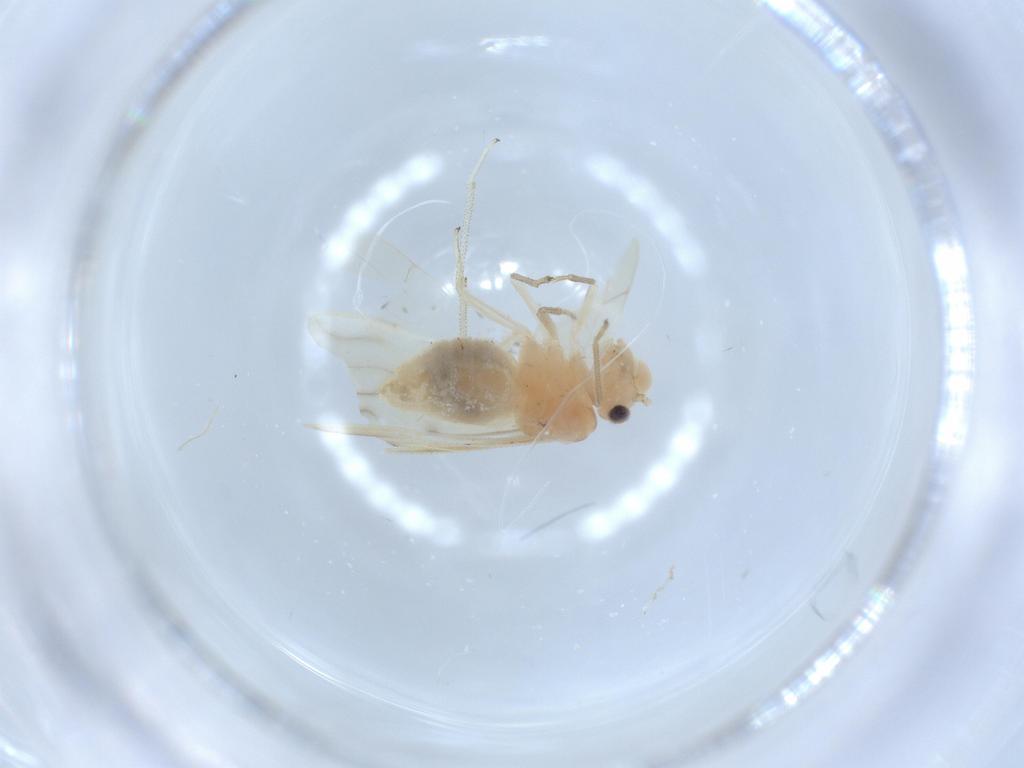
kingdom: Animalia
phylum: Arthropoda
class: Insecta
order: Psocodea
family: Caeciliusidae
